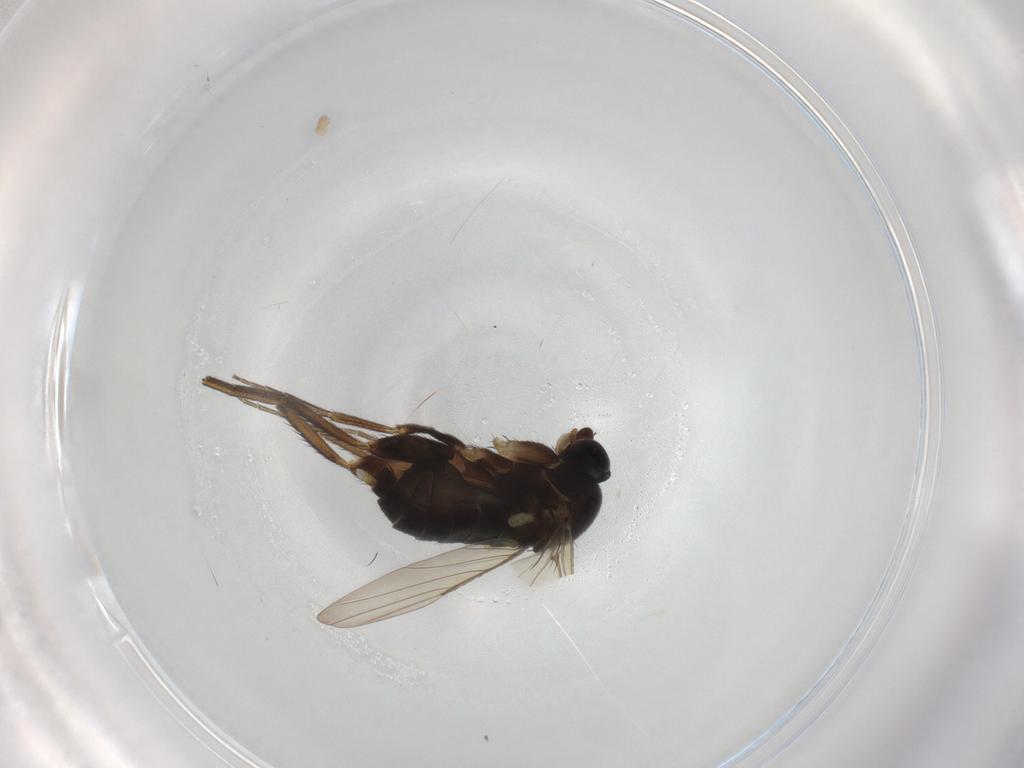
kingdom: Animalia
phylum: Arthropoda
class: Insecta
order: Diptera
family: Phoridae
